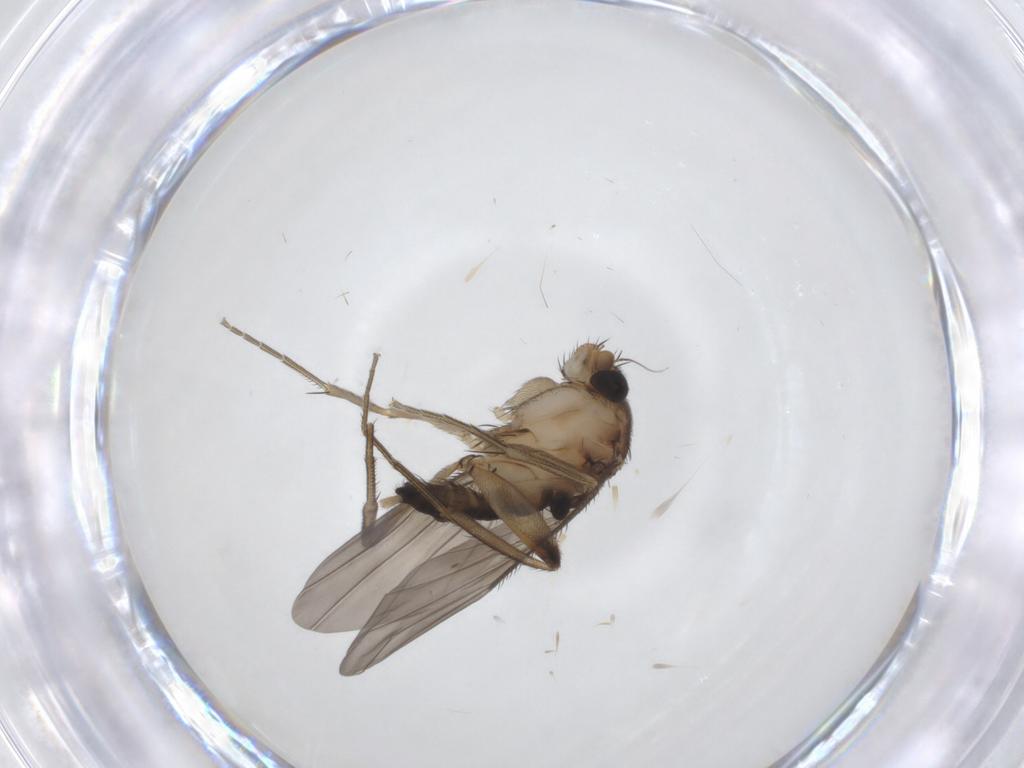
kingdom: Animalia
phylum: Arthropoda
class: Insecta
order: Diptera
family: Phoridae
